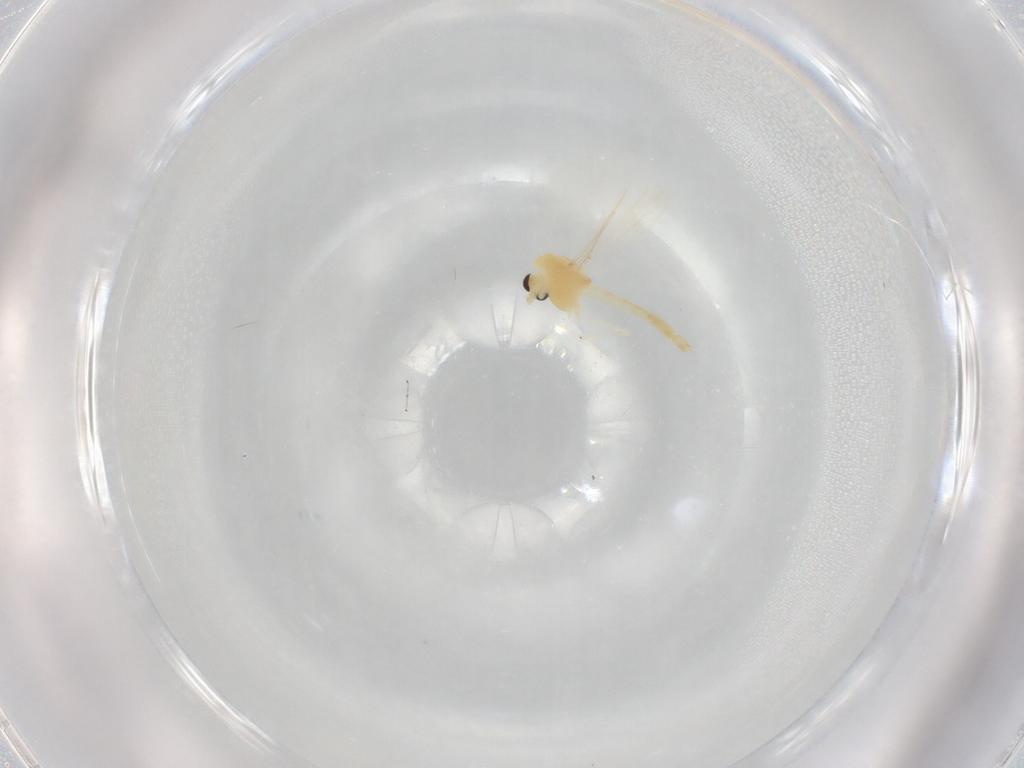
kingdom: Animalia
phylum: Arthropoda
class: Insecta
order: Diptera
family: Chironomidae
